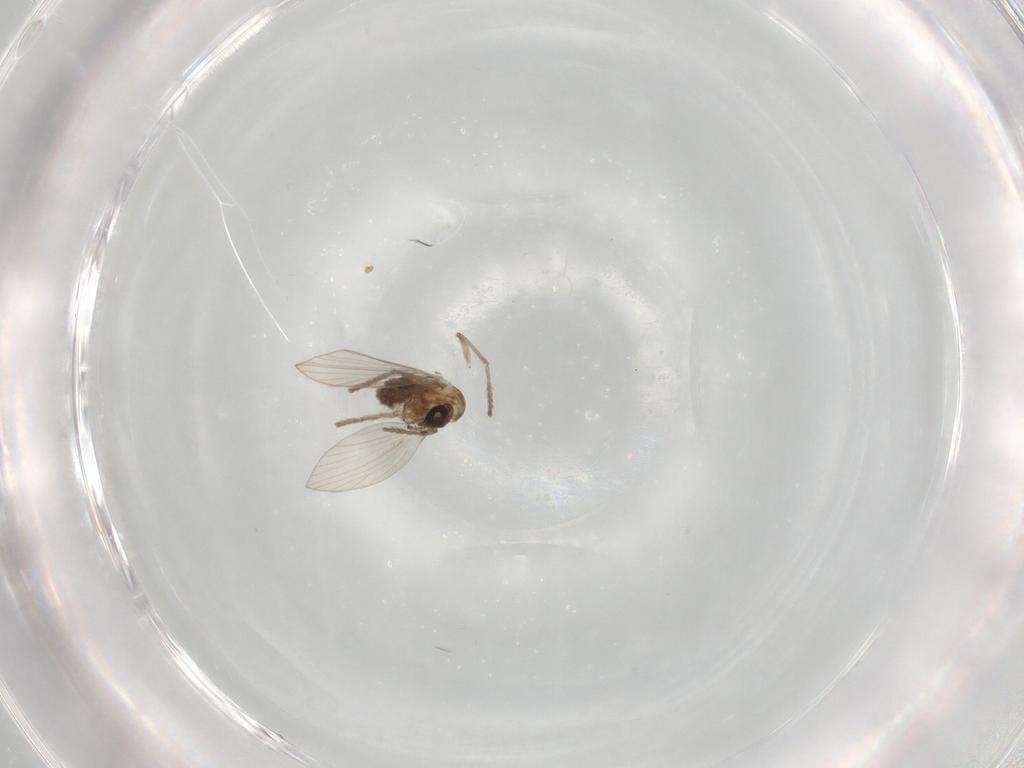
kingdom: Animalia
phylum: Arthropoda
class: Insecta
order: Diptera
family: Psychodidae
